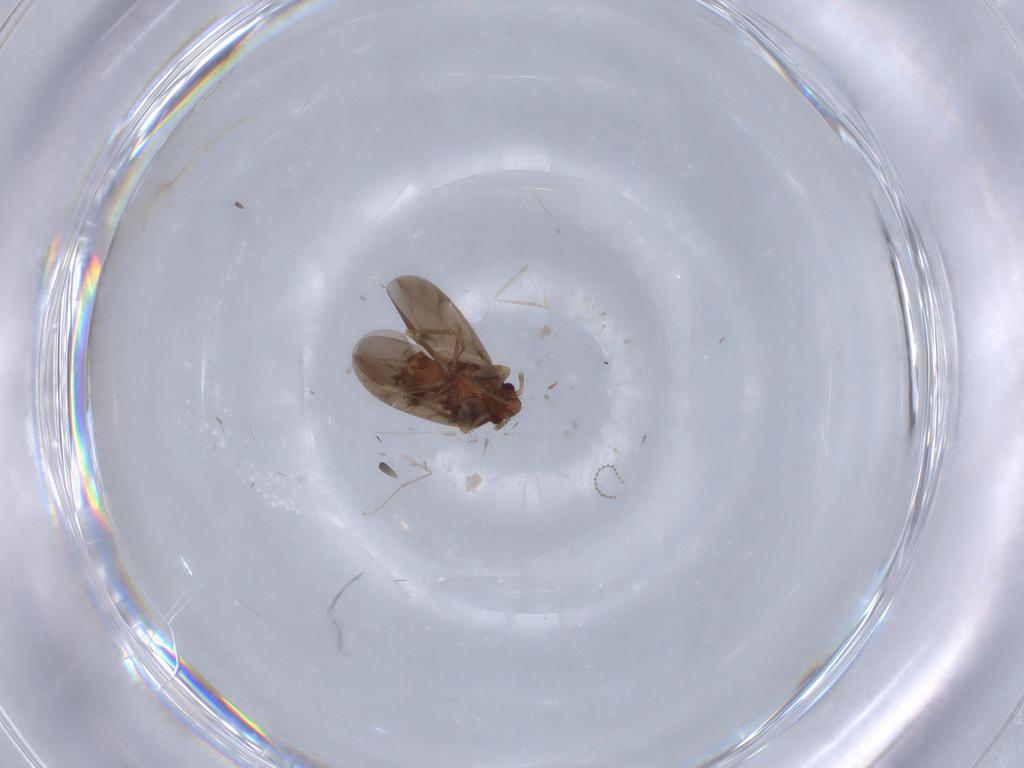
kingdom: Animalia
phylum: Arthropoda
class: Insecta
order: Hemiptera
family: Ceratocombidae
